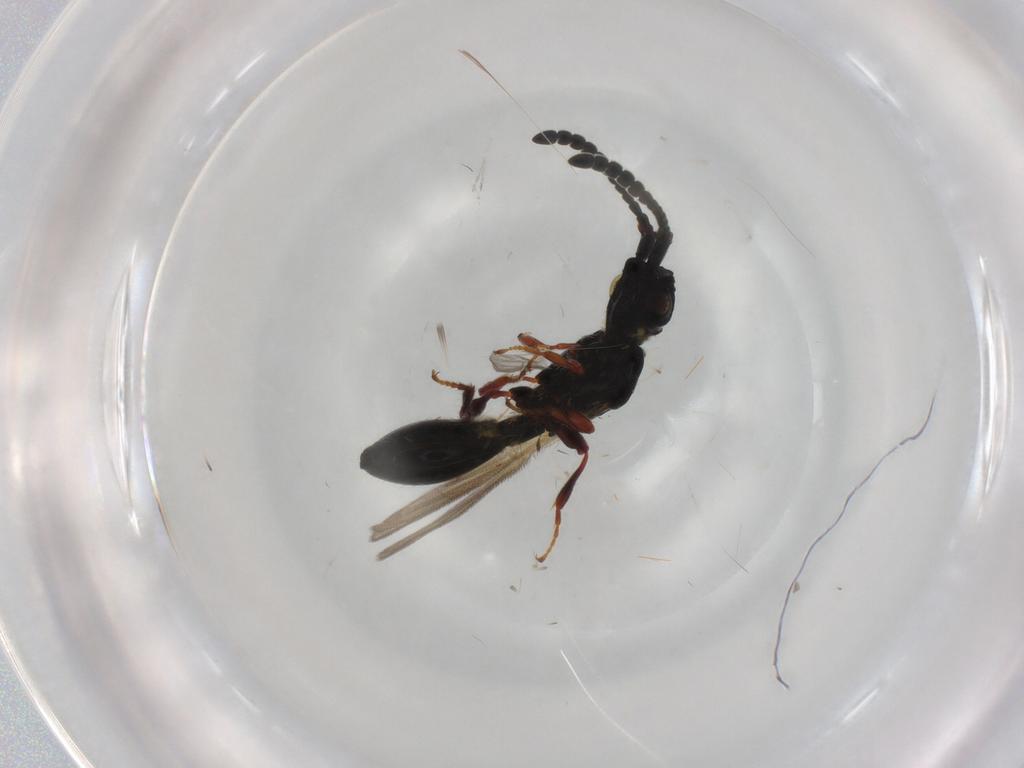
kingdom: Animalia
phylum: Arthropoda
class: Insecta
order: Hymenoptera
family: Diapriidae
